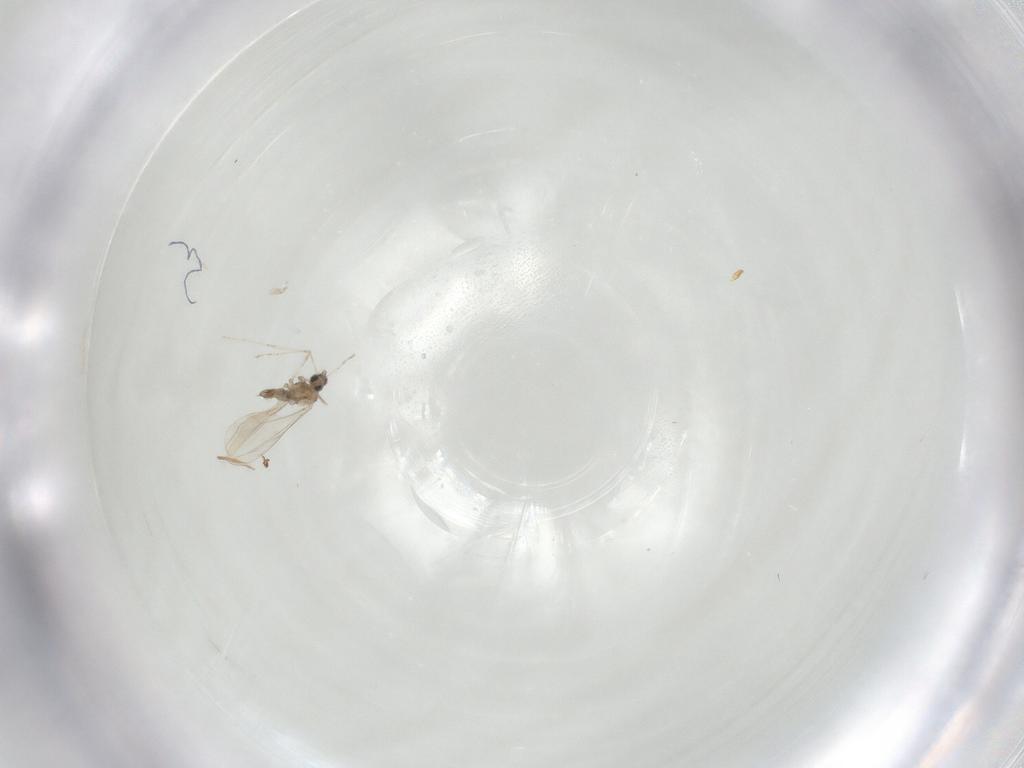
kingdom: Animalia
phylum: Arthropoda
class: Insecta
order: Diptera
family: Cecidomyiidae
